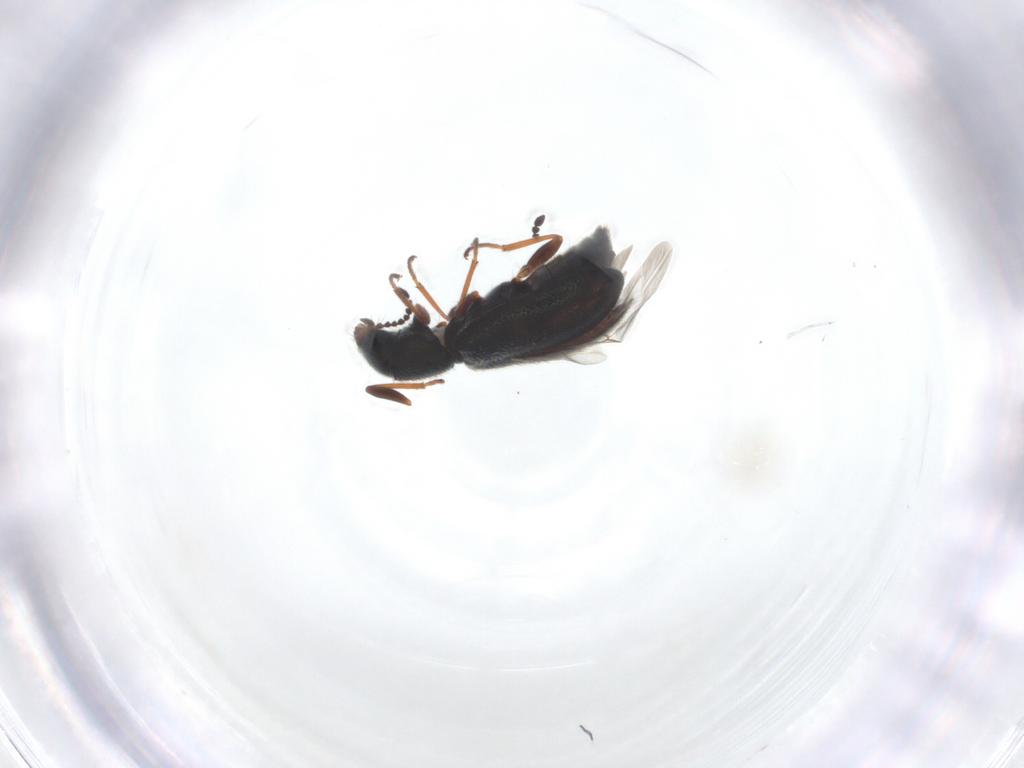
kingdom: Animalia
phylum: Arthropoda
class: Insecta
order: Coleoptera
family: Melyridae
